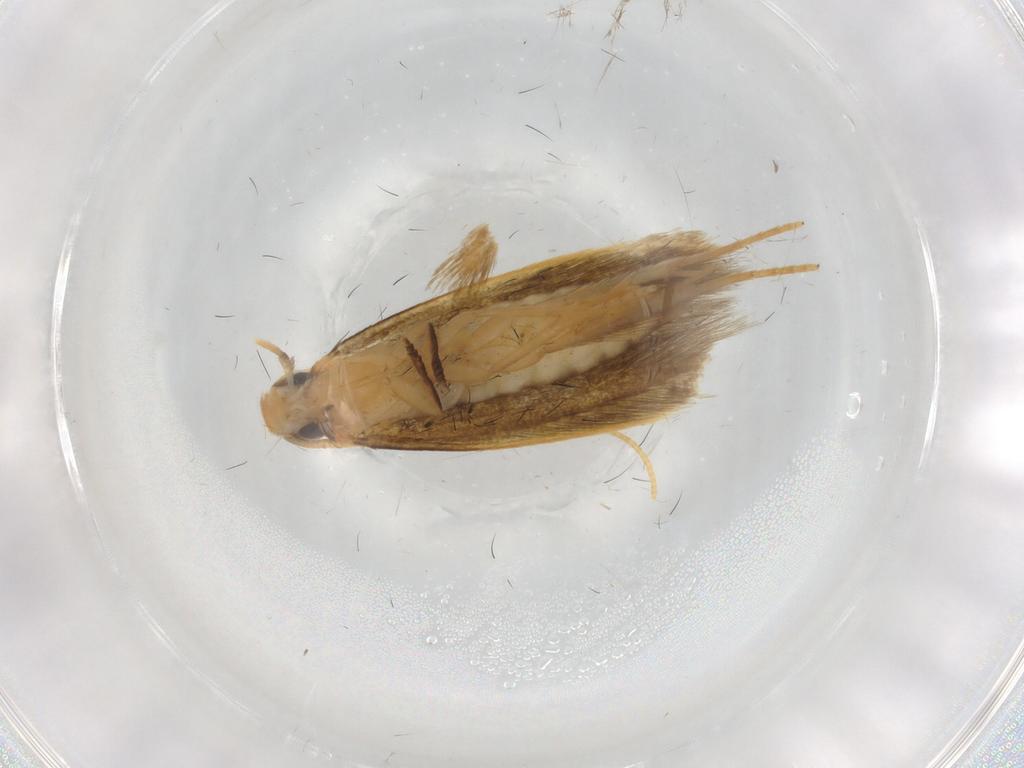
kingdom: Animalia
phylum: Arthropoda
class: Insecta
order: Lepidoptera
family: Tineidae
